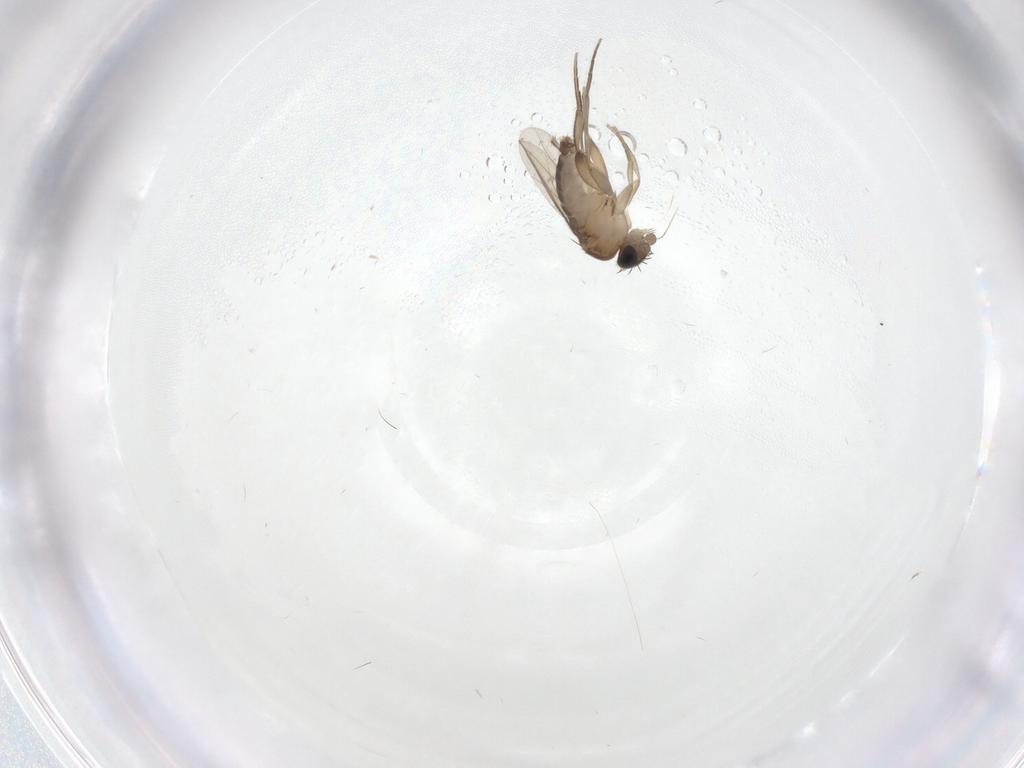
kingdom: Animalia
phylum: Arthropoda
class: Insecta
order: Diptera
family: Phoridae
